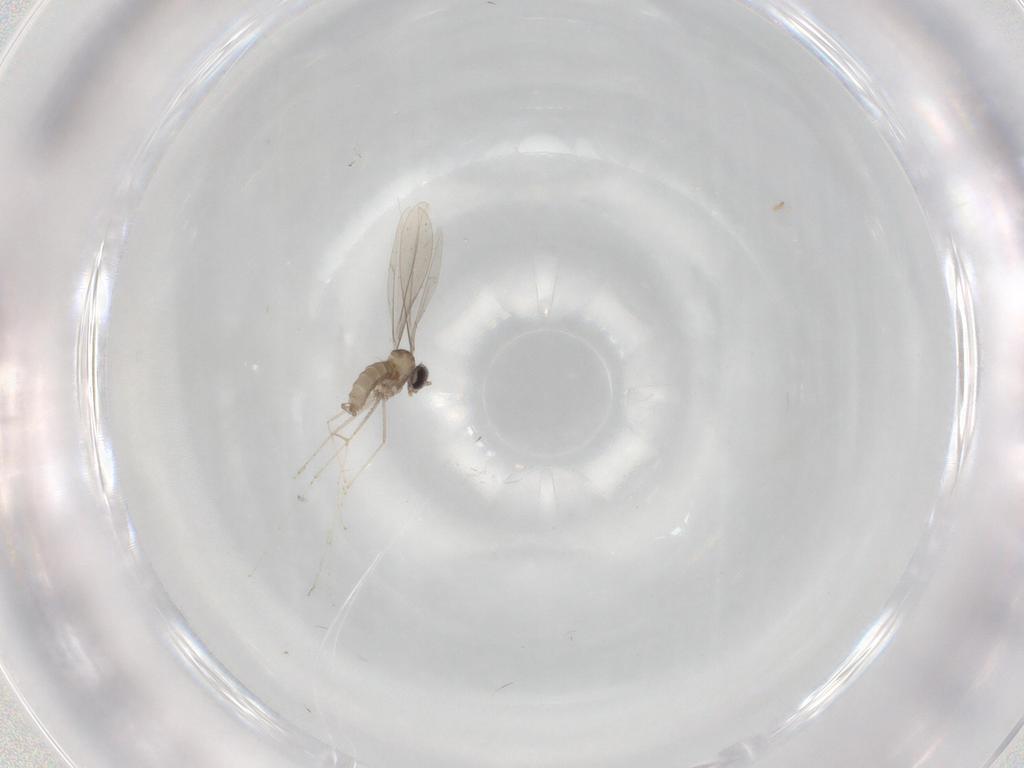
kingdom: Animalia
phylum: Arthropoda
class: Insecta
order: Diptera
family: Cecidomyiidae
